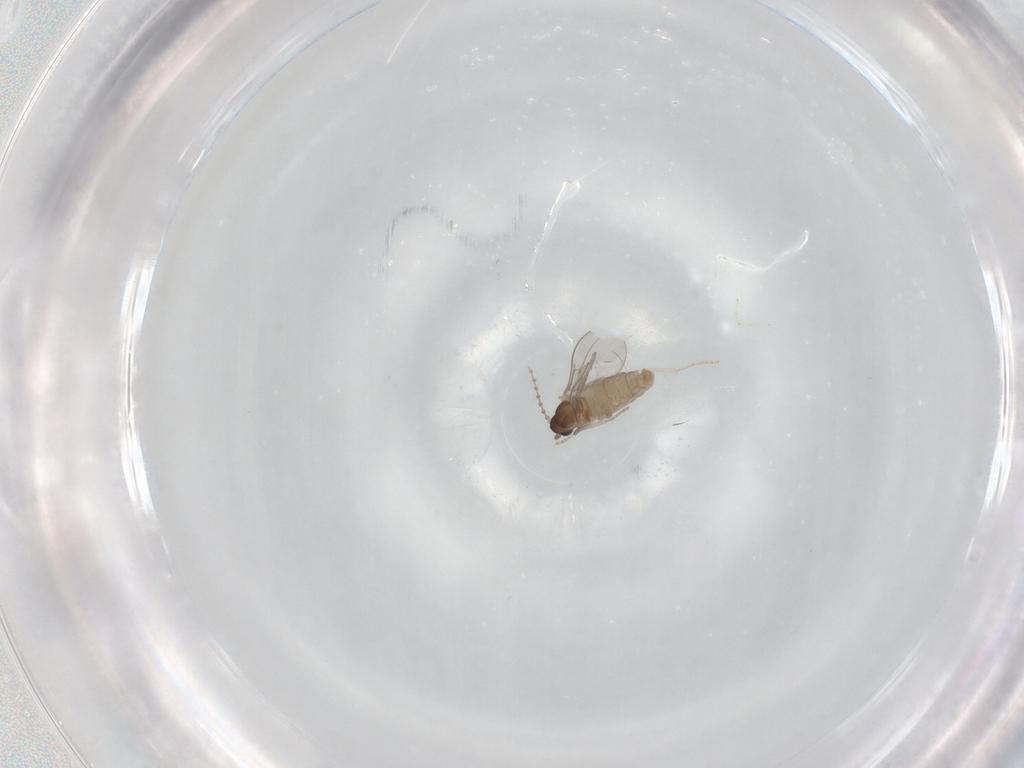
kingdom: Animalia
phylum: Arthropoda
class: Insecta
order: Diptera
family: Cecidomyiidae
